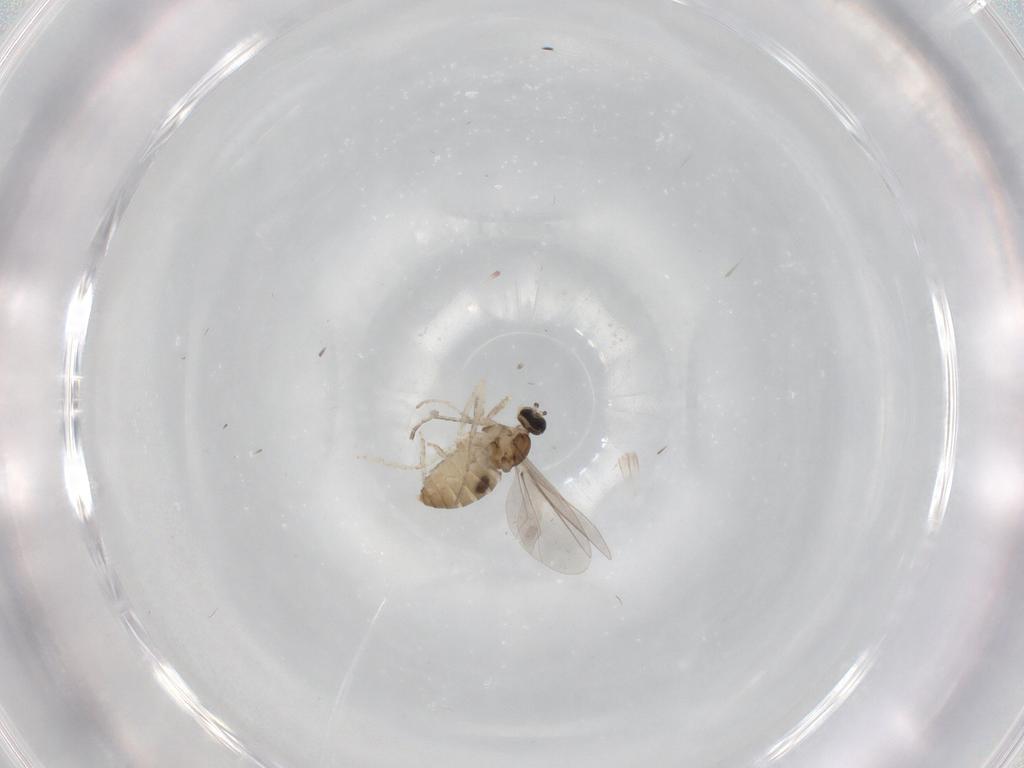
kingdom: Animalia
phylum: Arthropoda
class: Insecta
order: Diptera
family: Cecidomyiidae
